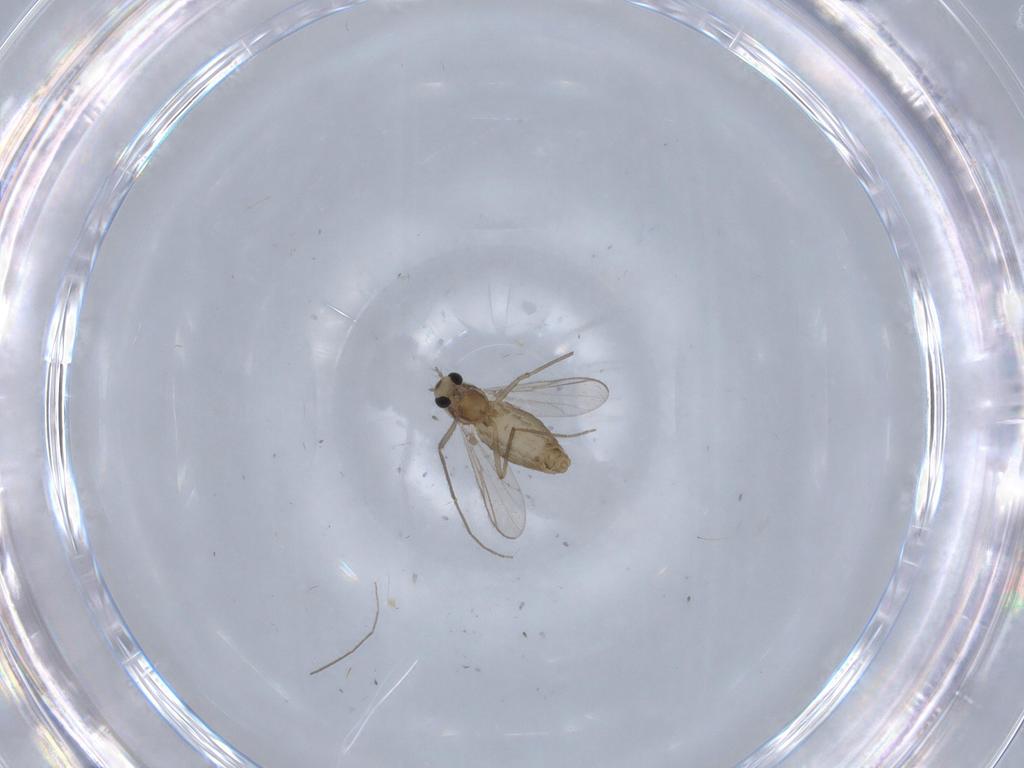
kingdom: Animalia
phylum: Arthropoda
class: Insecta
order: Diptera
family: Chironomidae
